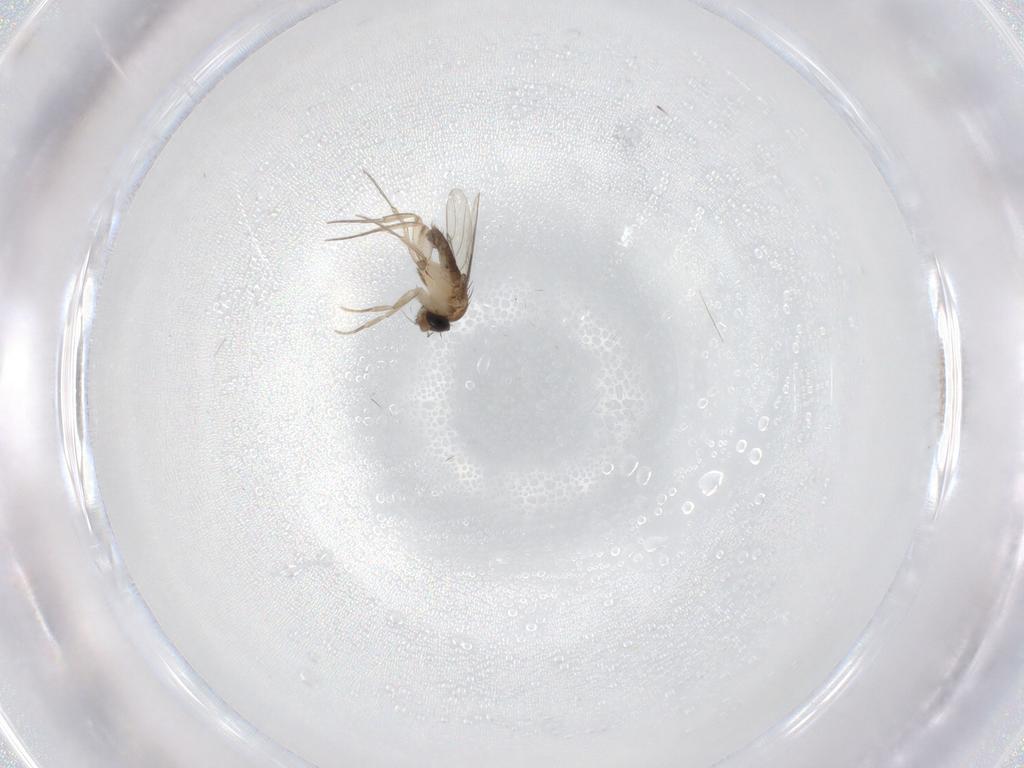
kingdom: Animalia
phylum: Arthropoda
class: Insecta
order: Diptera
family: Phoridae
